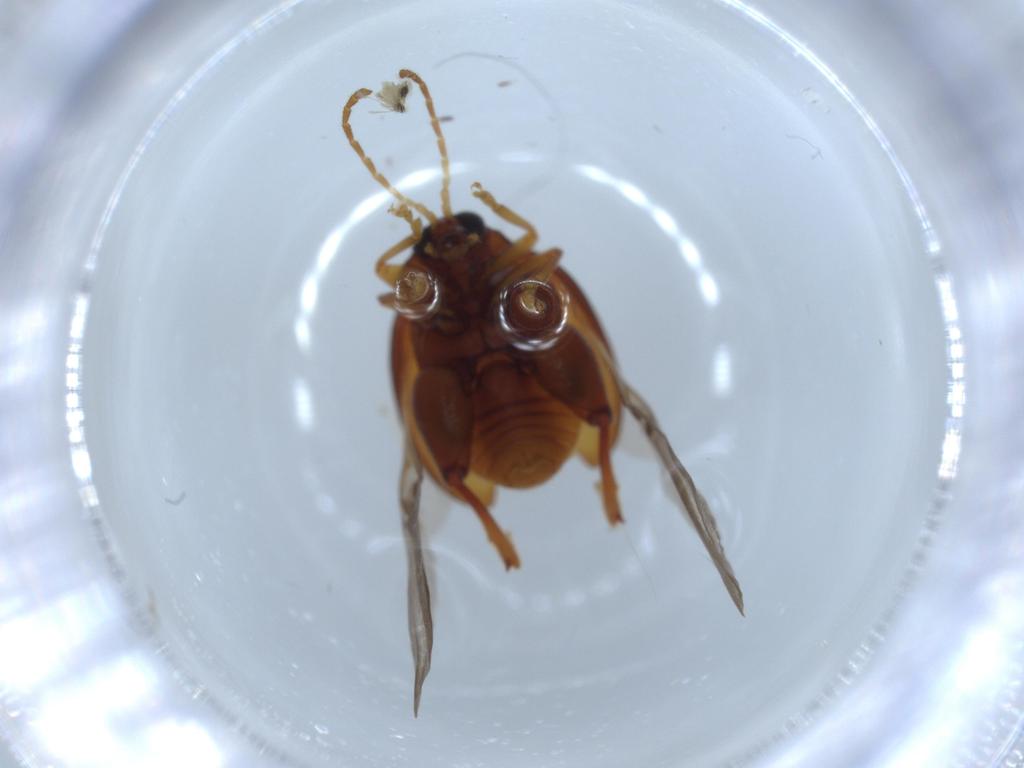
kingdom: Animalia
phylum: Arthropoda
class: Insecta
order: Coleoptera
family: Chrysomelidae
